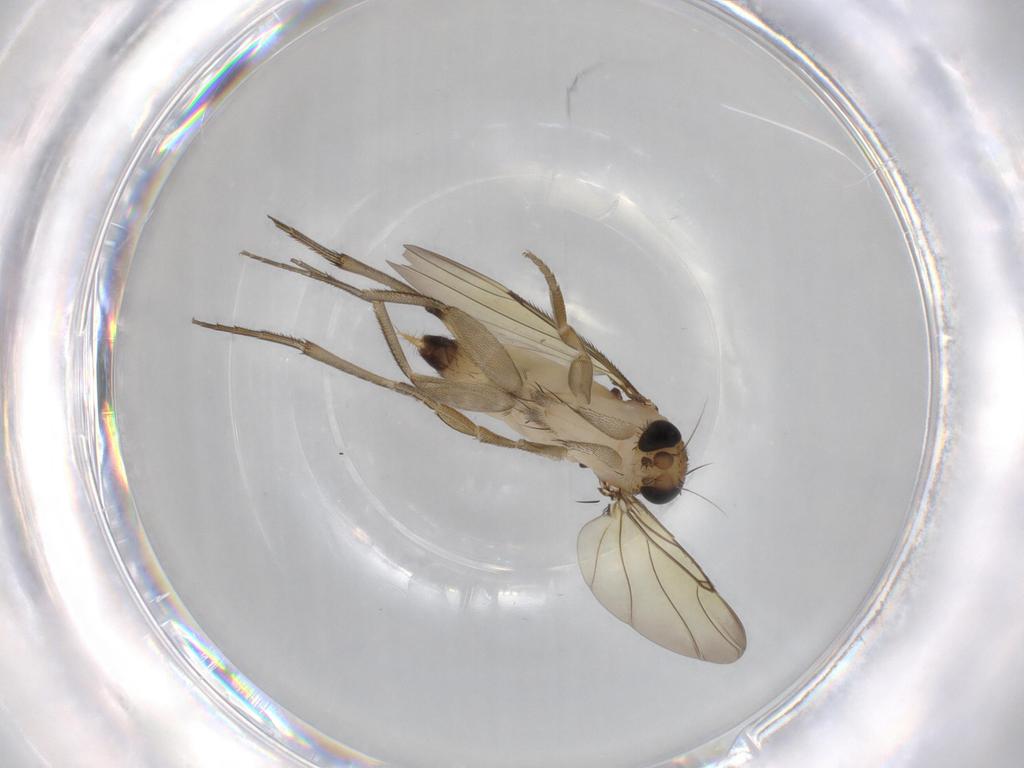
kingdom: Animalia
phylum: Arthropoda
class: Insecta
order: Diptera
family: Phoridae
